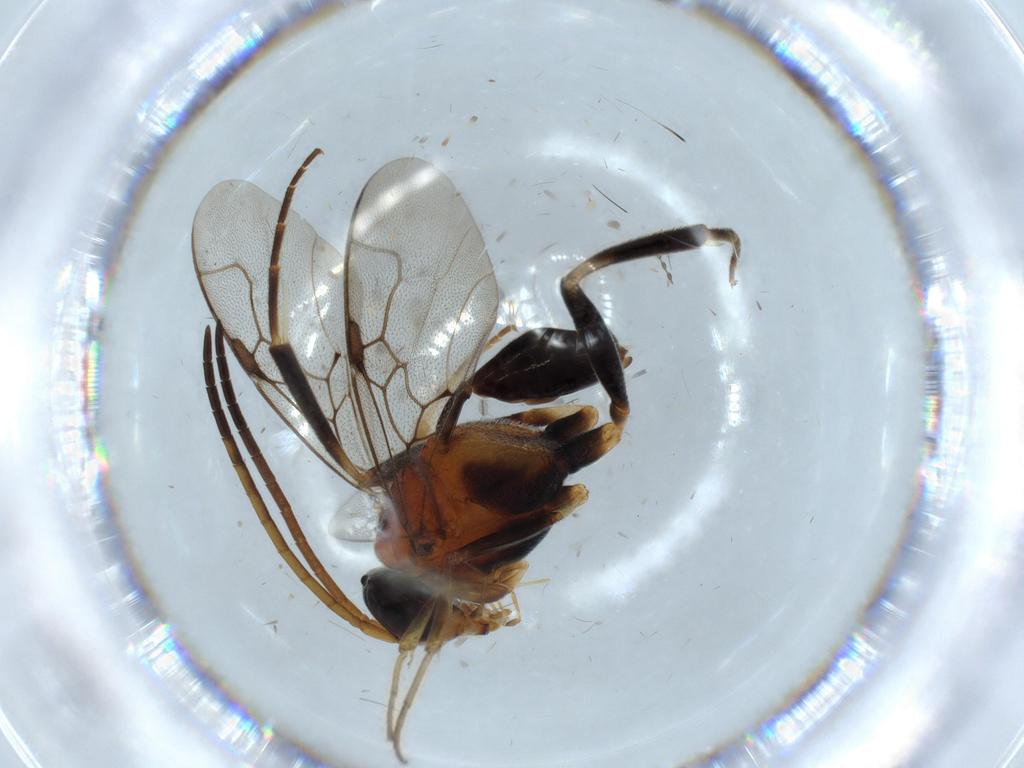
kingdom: Animalia
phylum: Arthropoda
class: Insecta
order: Hymenoptera
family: Evaniidae
